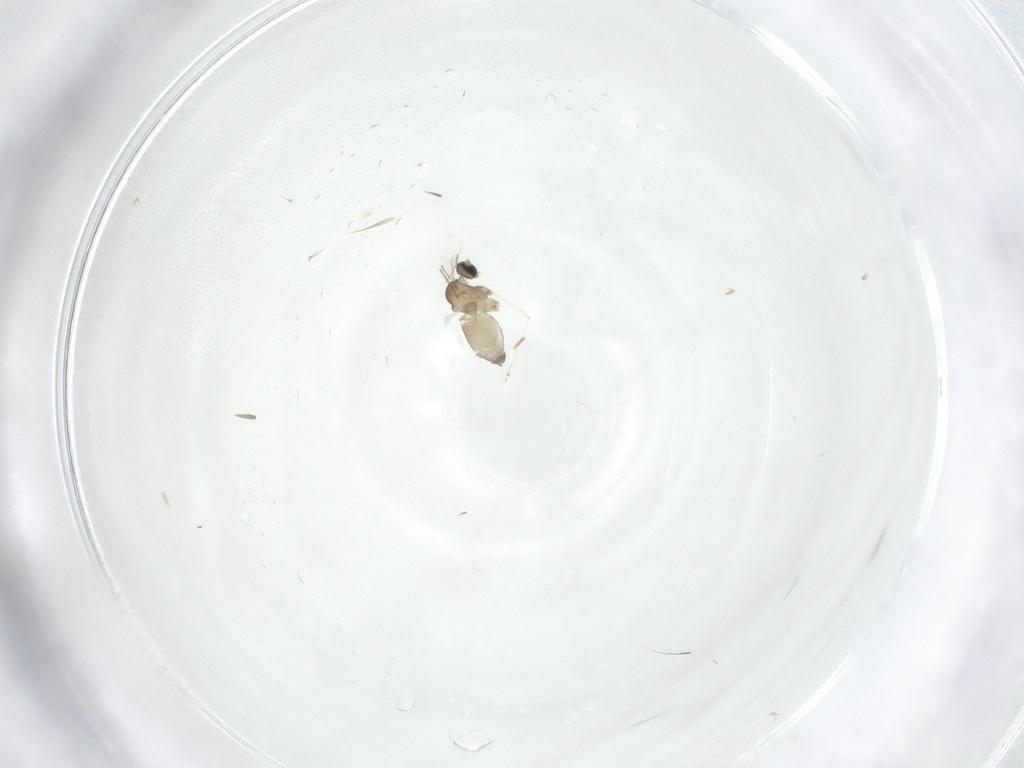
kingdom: Animalia
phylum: Arthropoda
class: Insecta
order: Diptera
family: Cecidomyiidae
